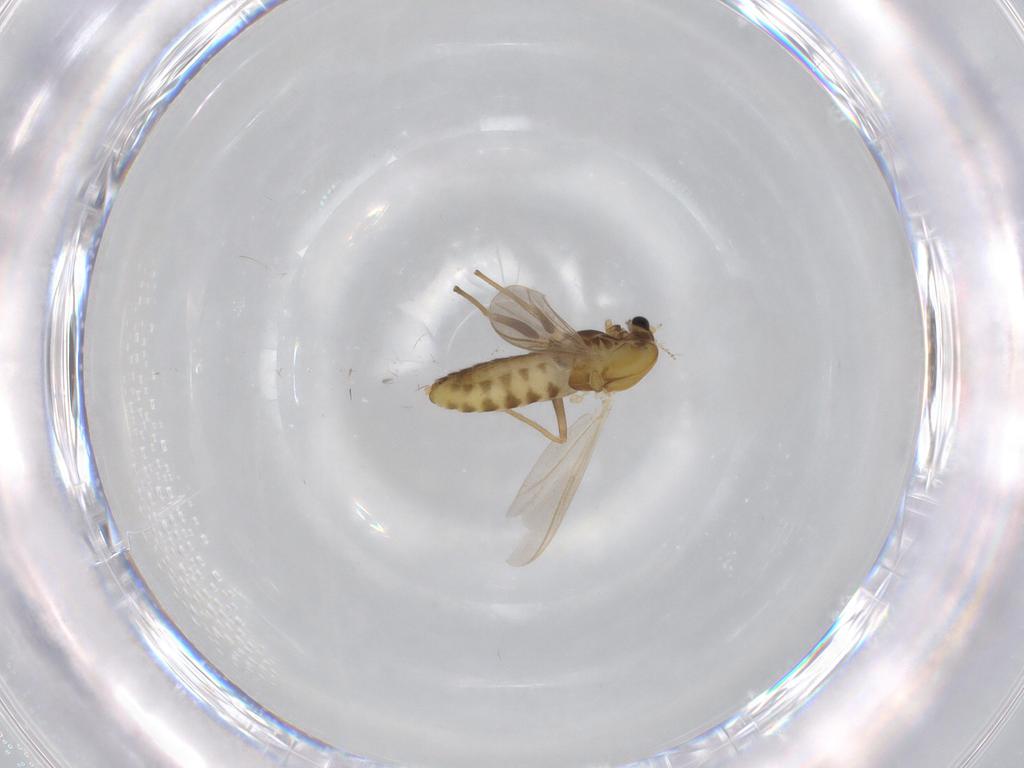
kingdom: Animalia
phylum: Arthropoda
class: Insecta
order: Diptera
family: Chironomidae
